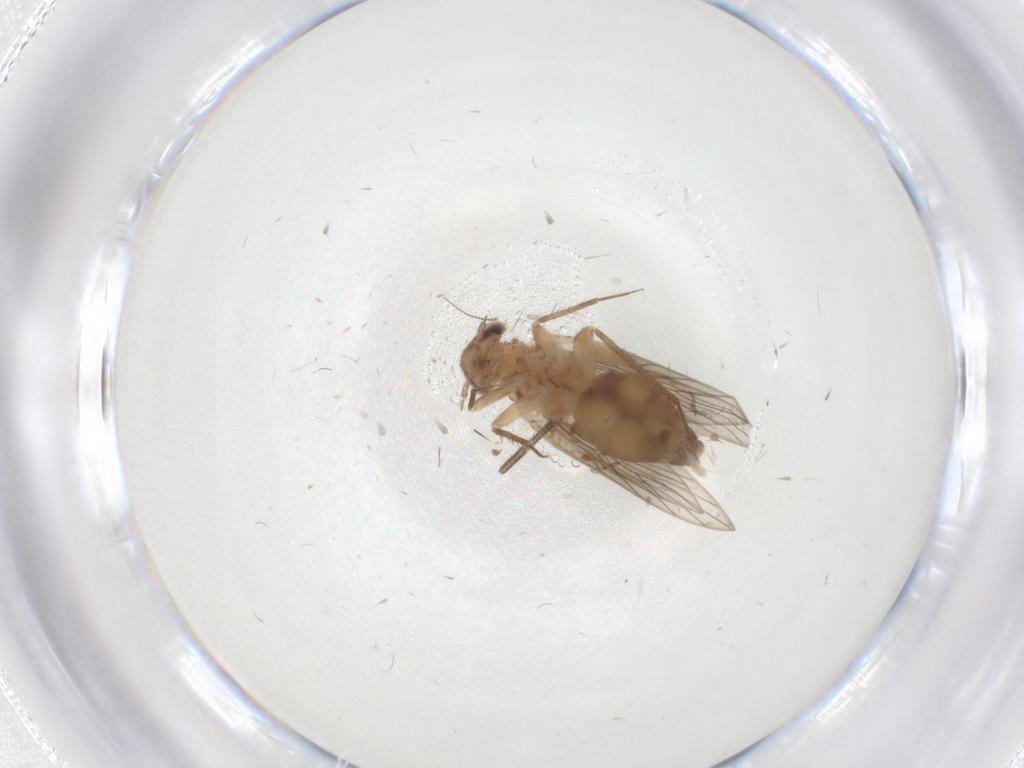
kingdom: Animalia
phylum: Arthropoda
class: Insecta
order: Psocodea
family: Lepidopsocidae
